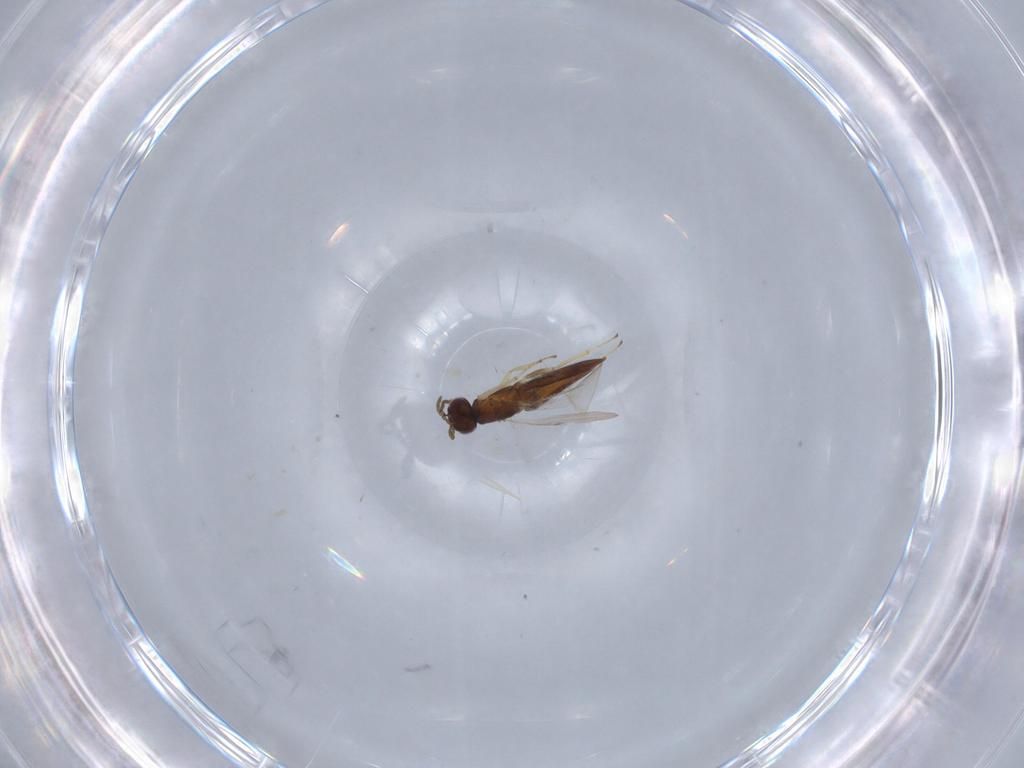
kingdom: Animalia
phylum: Arthropoda
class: Insecta
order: Hymenoptera
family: Encyrtidae
